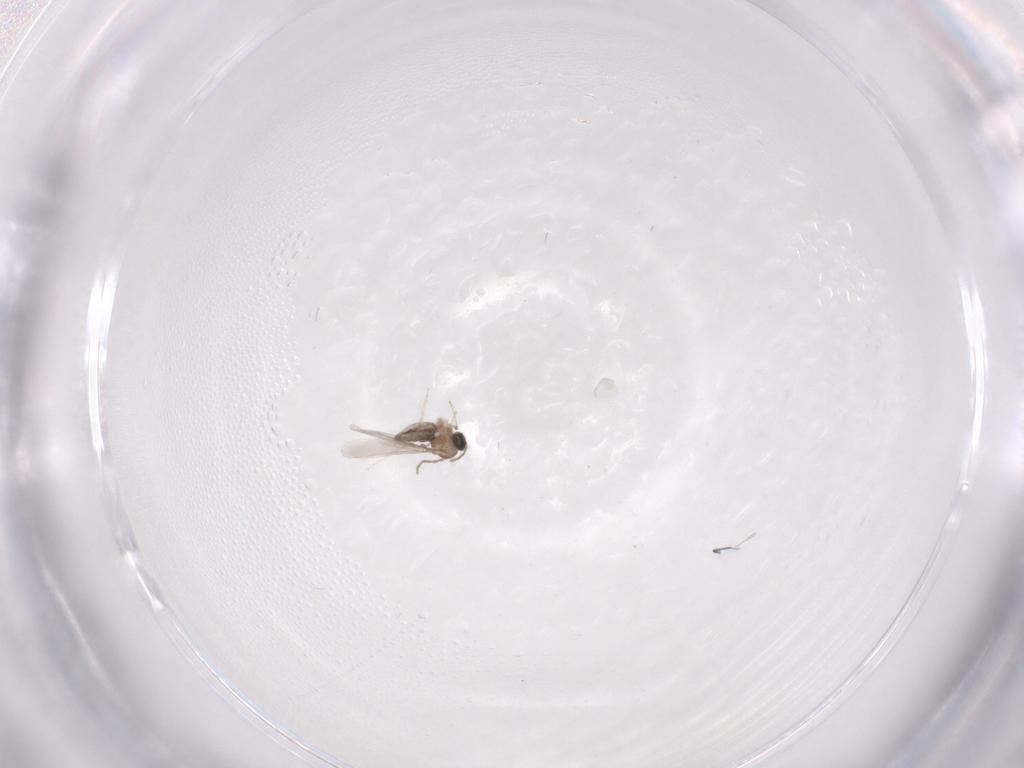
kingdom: Animalia
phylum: Arthropoda
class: Insecta
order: Diptera
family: Cecidomyiidae
